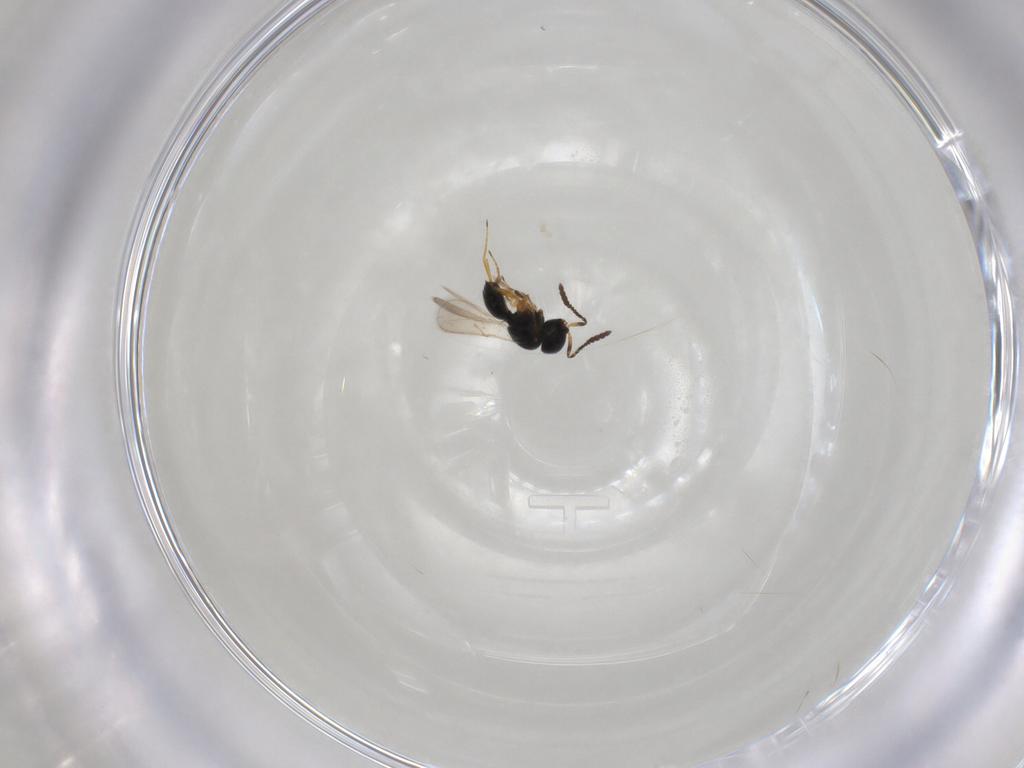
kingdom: Animalia
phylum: Arthropoda
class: Insecta
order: Hymenoptera
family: Scelionidae
